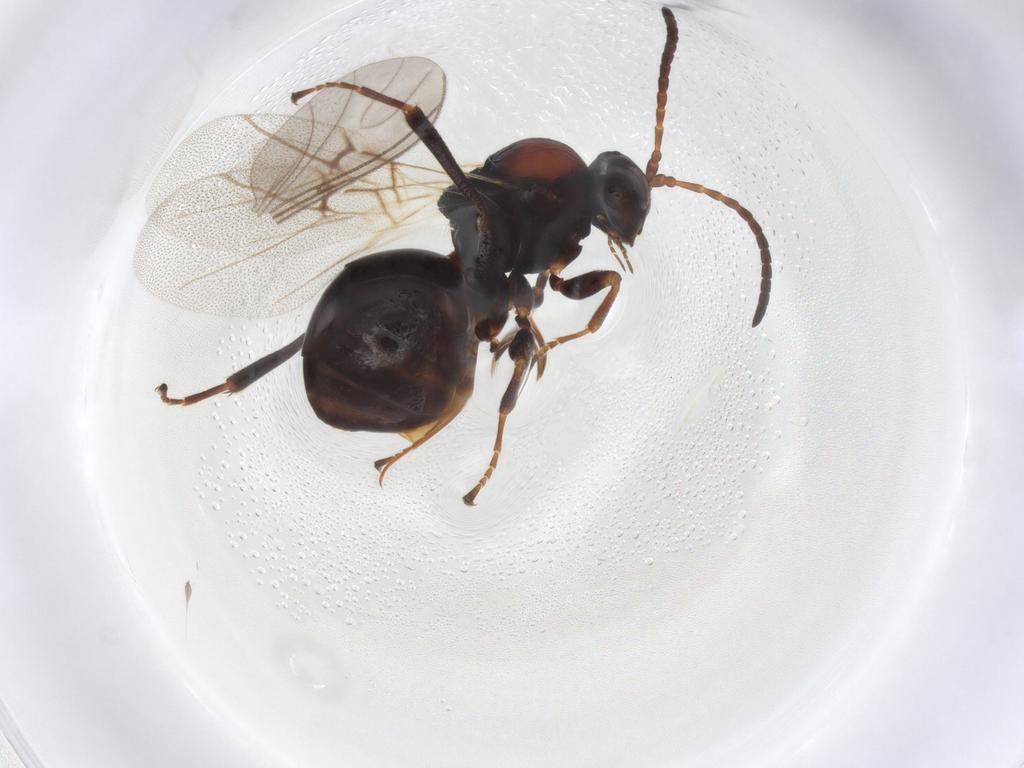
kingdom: Animalia
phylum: Arthropoda
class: Insecta
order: Hymenoptera
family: Cynipidae
